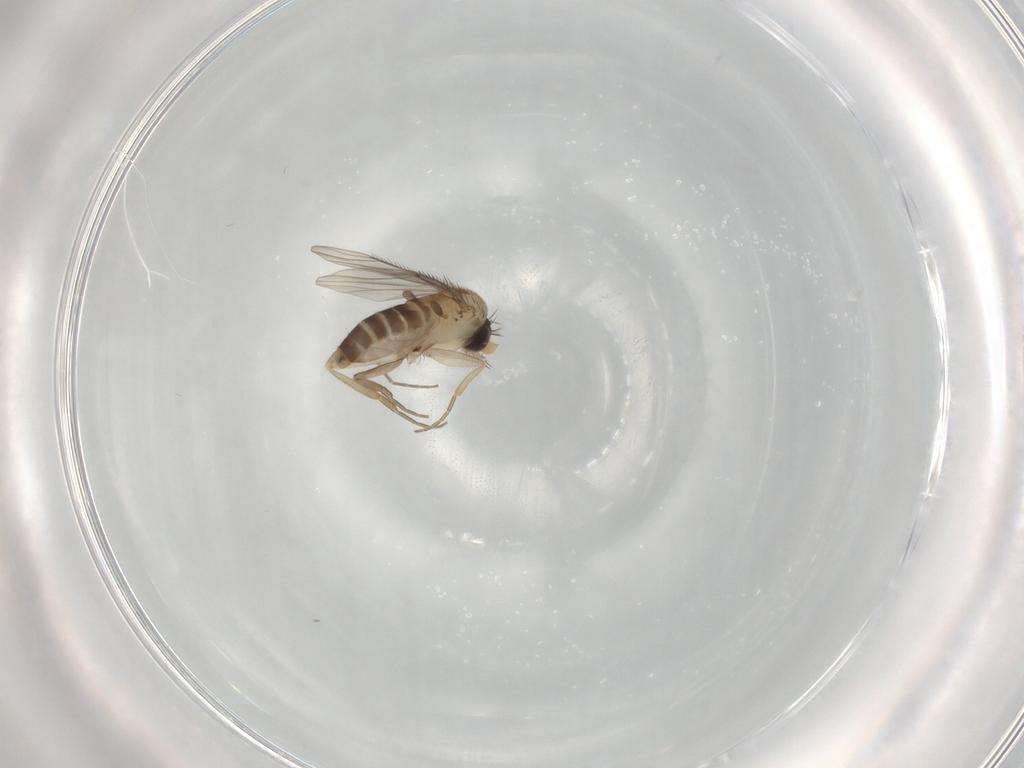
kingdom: Animalia
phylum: Arthropoda
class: Insecta
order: Diptera
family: Phoridae
